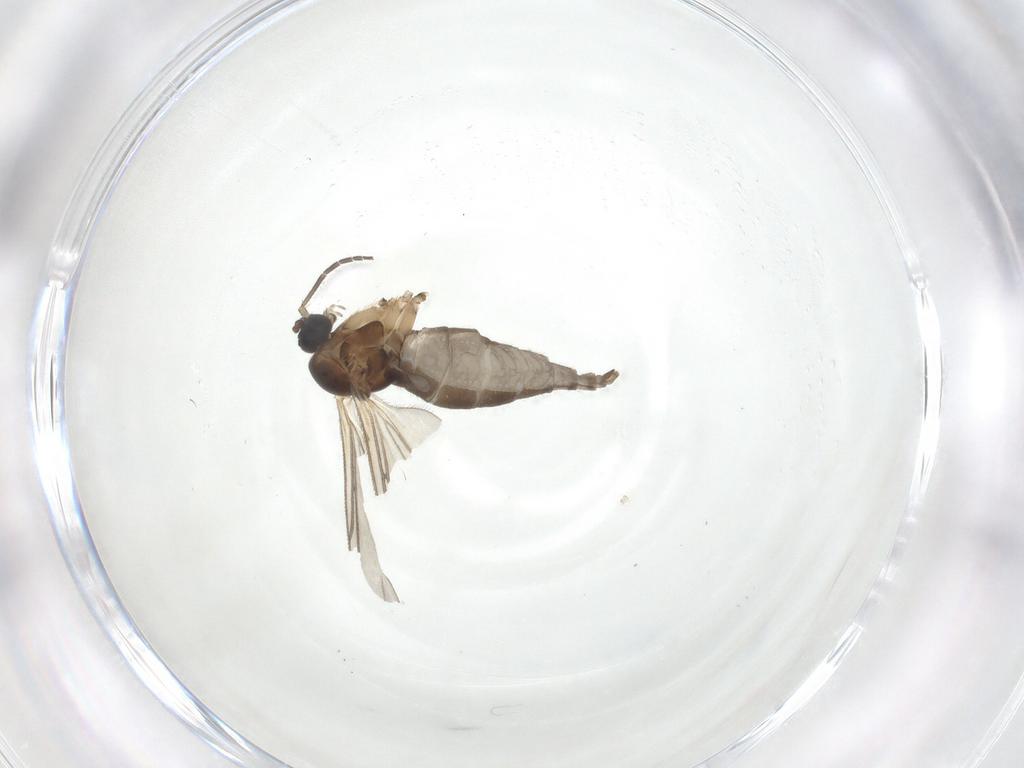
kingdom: Animalia
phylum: Arthropoda
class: Insecta
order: Diptera
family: Sciaridae
